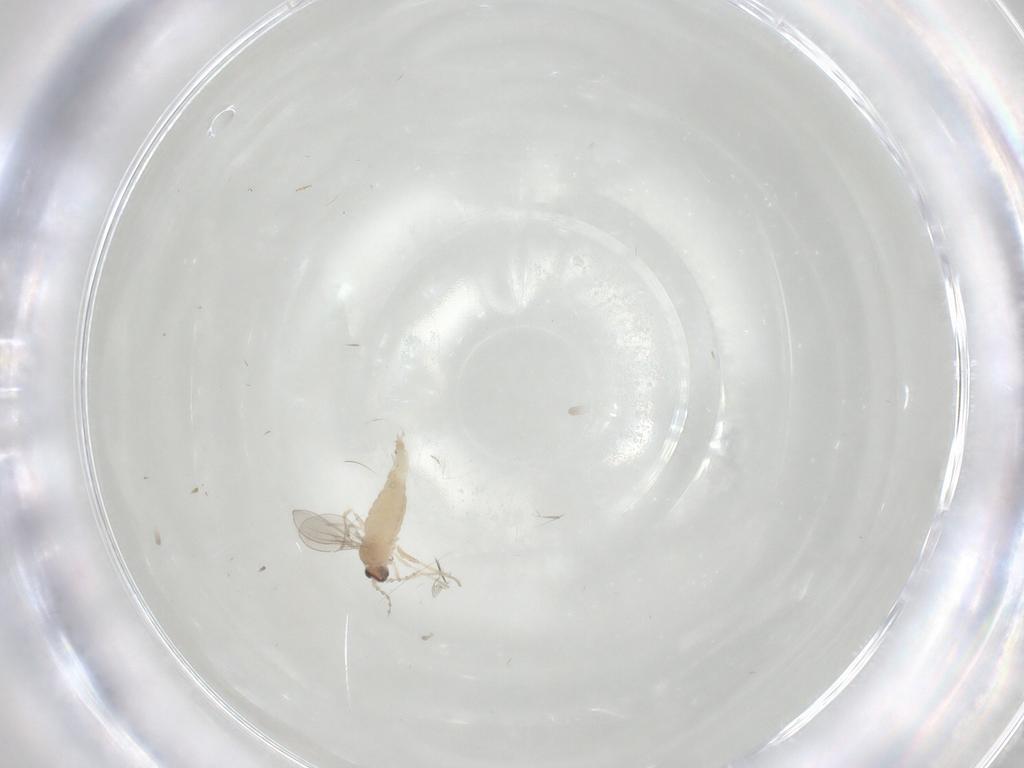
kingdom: Animalia
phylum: Arthropoda
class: Insecta
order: Diptera
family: Cecidomyiidae
